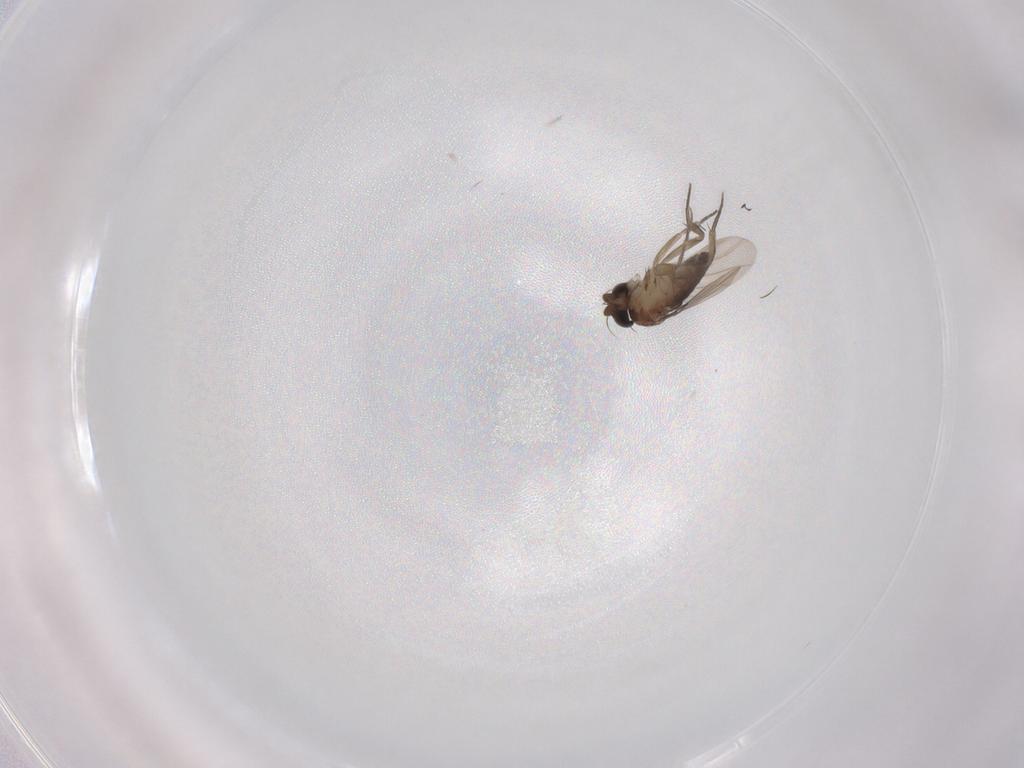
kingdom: Animalia
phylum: Arthropoda
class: Insecta
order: Diptera
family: Phoridae
